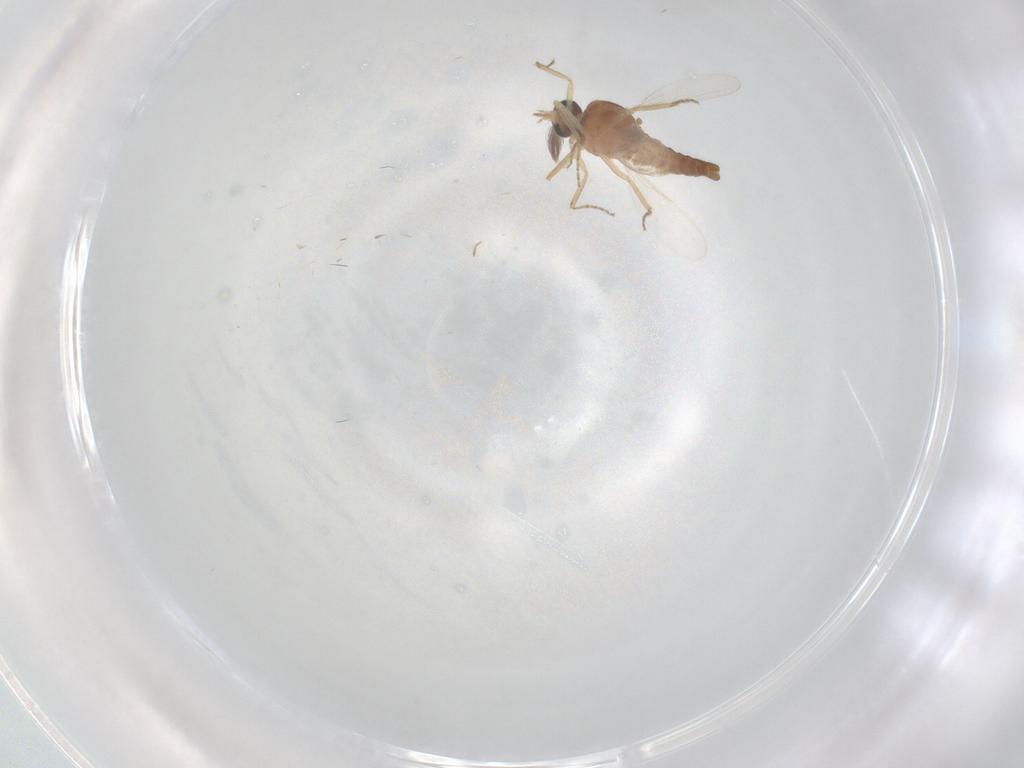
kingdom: Animalia
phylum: Arthropoda
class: Insecta
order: Diptera
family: Ceratopogonidae
